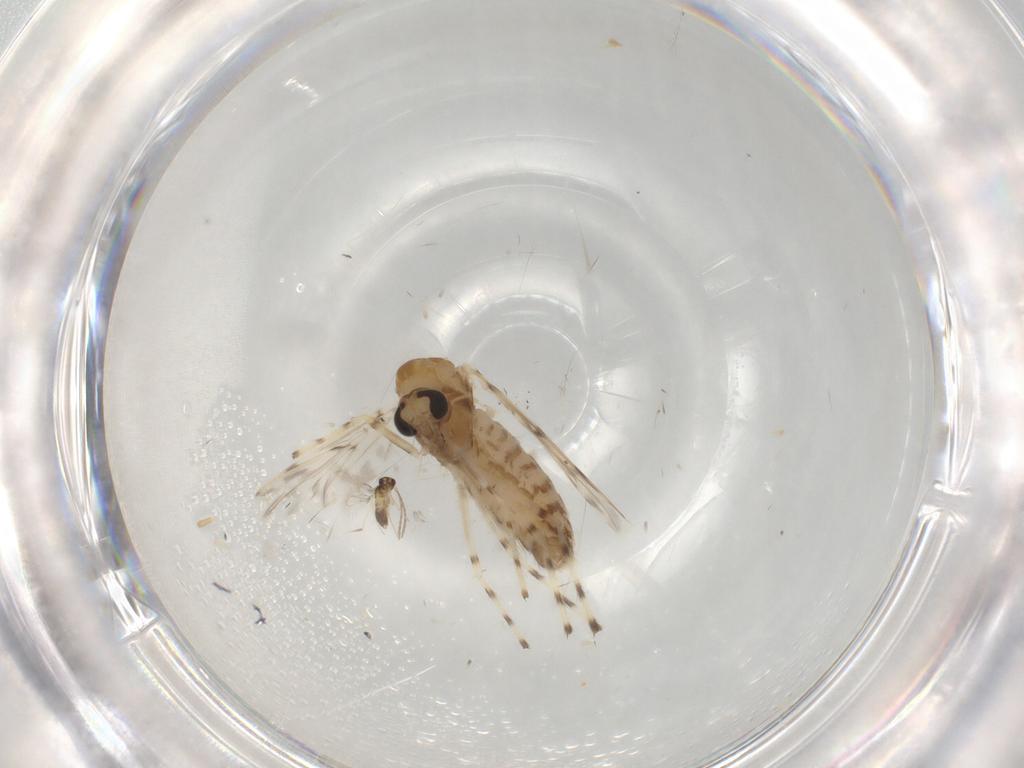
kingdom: Animalia
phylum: Arthropoda
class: Insecta
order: Diptera
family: Chironomidae
